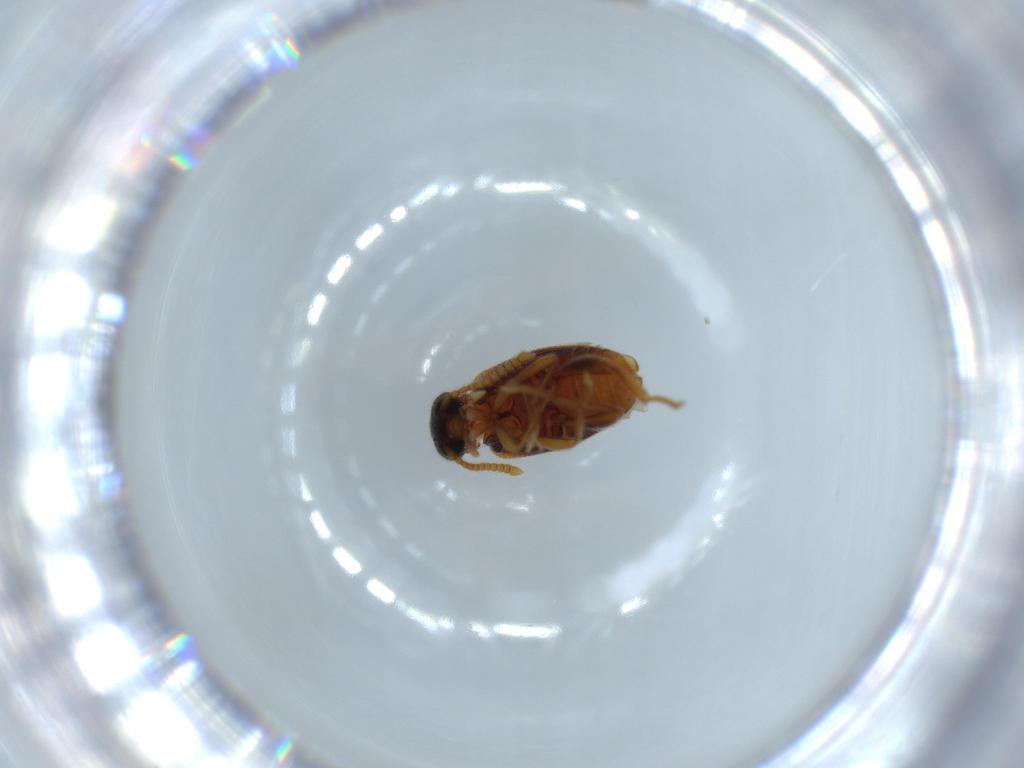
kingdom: Animalia
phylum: Arthropoda
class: Insecta
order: Coleoptera
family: Aderidae
